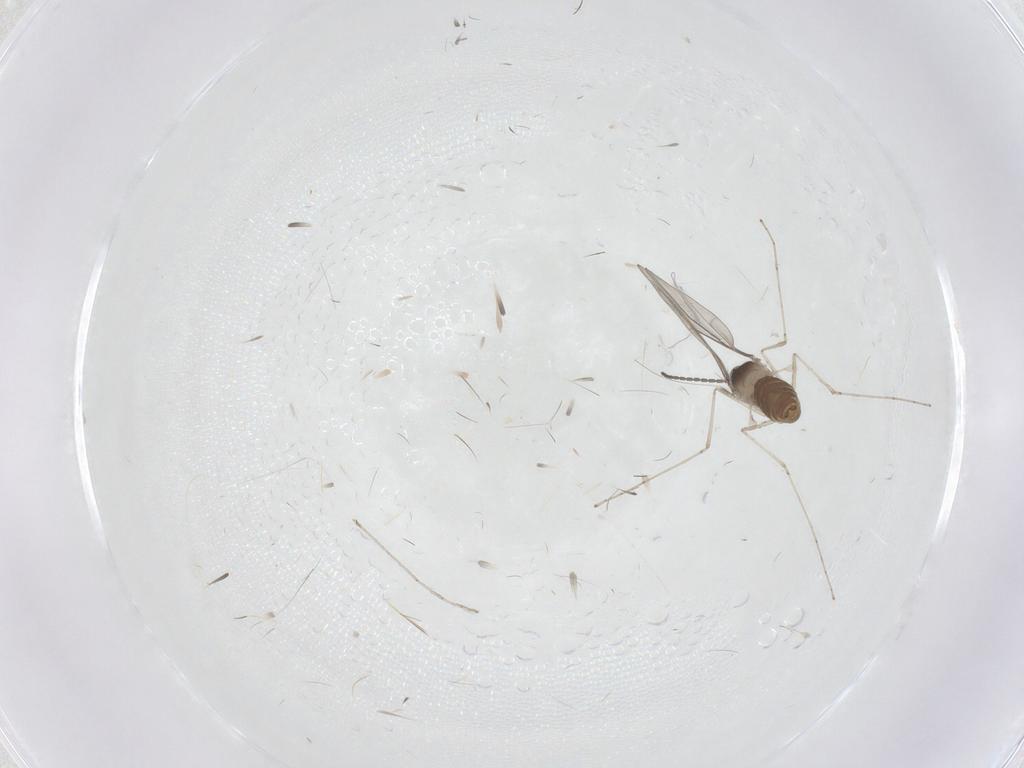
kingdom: Animalia
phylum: Arthropoda
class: Insecta
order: Diptera
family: Cecidomyiidae
